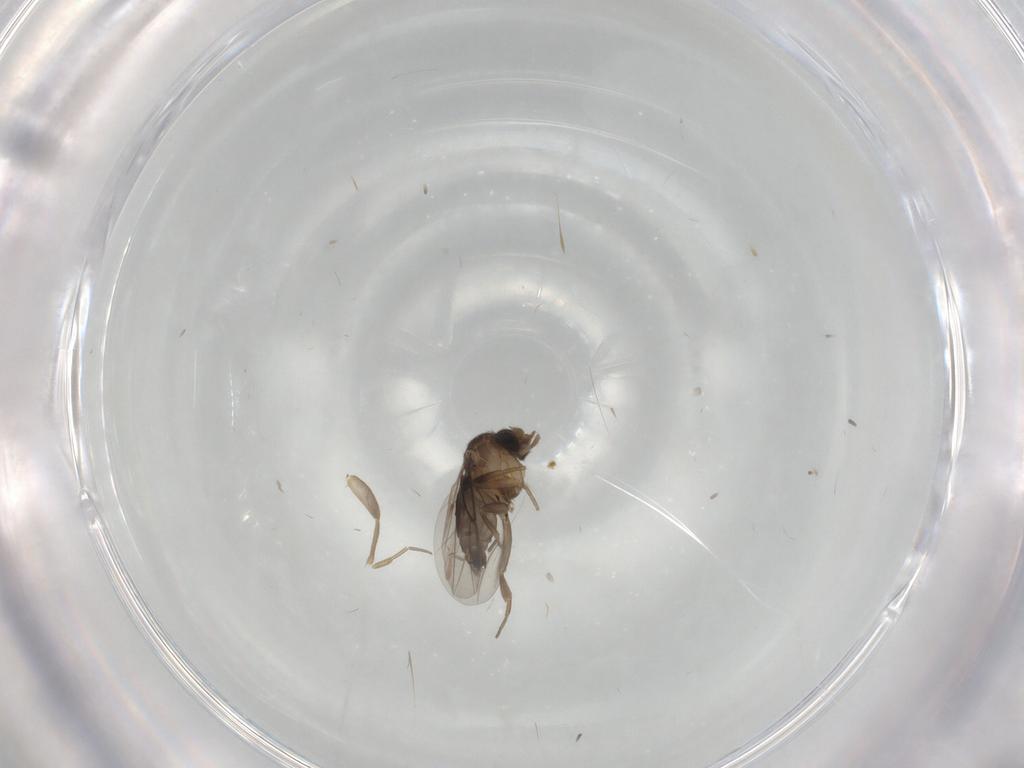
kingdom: Animalia
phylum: Arthropoda
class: Insecta
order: Diptera
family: Phoridae
